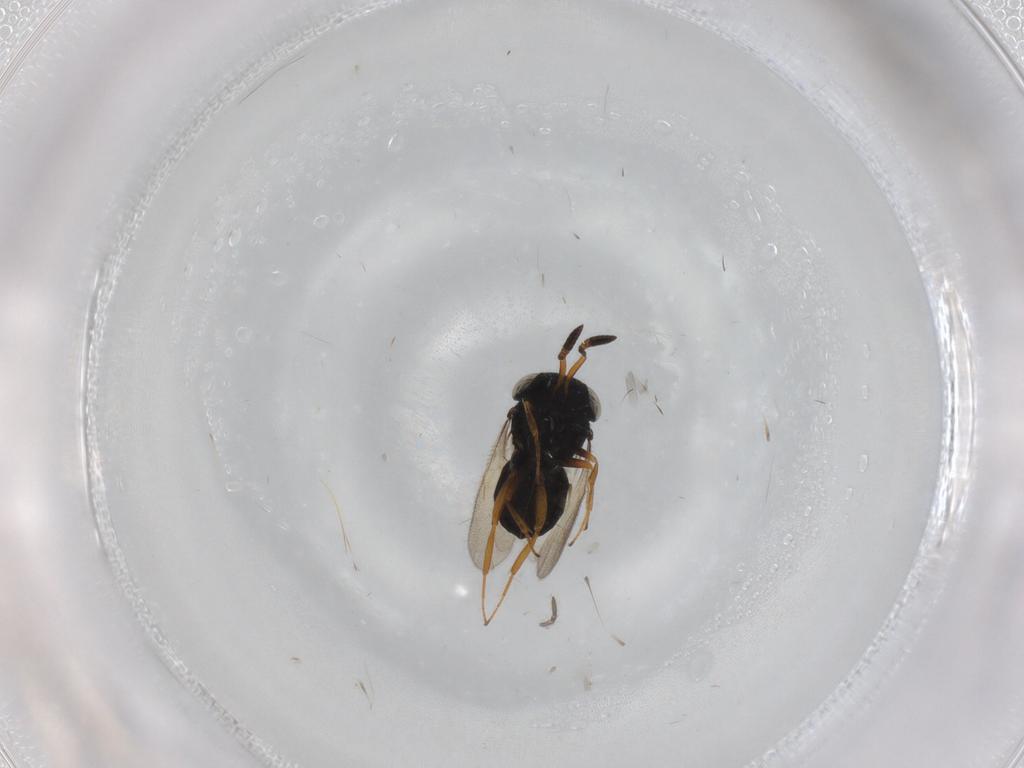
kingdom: Animalia
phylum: Arthropoda
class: Insecta
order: Hymenoptera
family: Scelionidae
